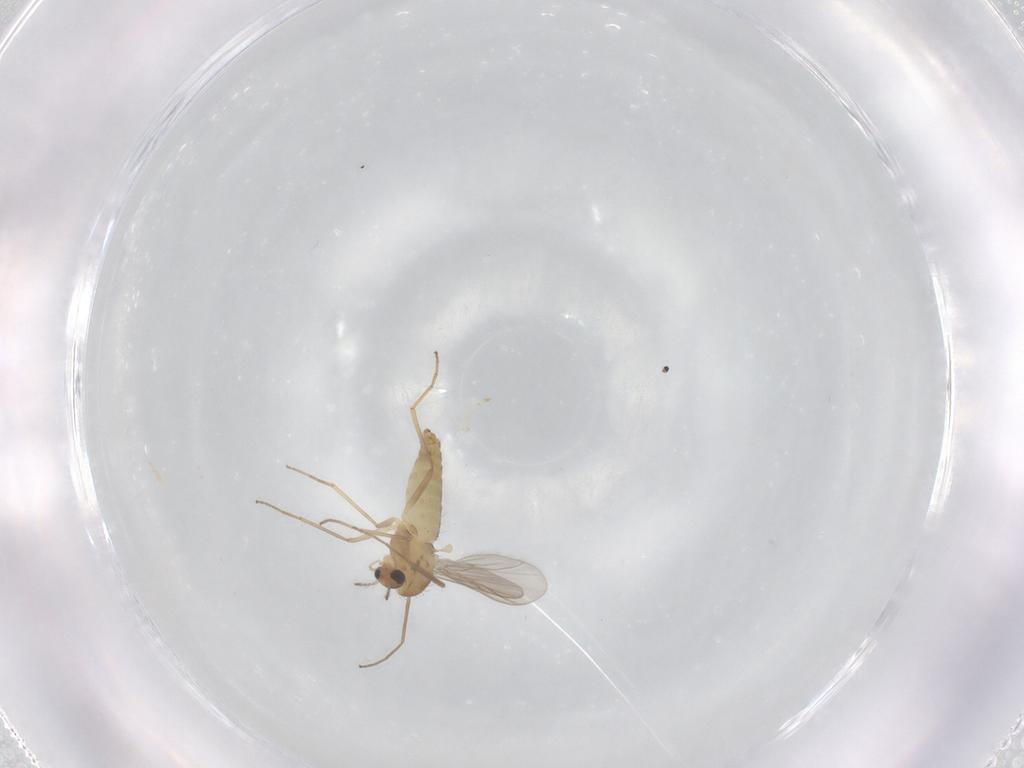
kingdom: Animalia
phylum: Arthropoda
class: Insecta
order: Diptera
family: Chironomidae
